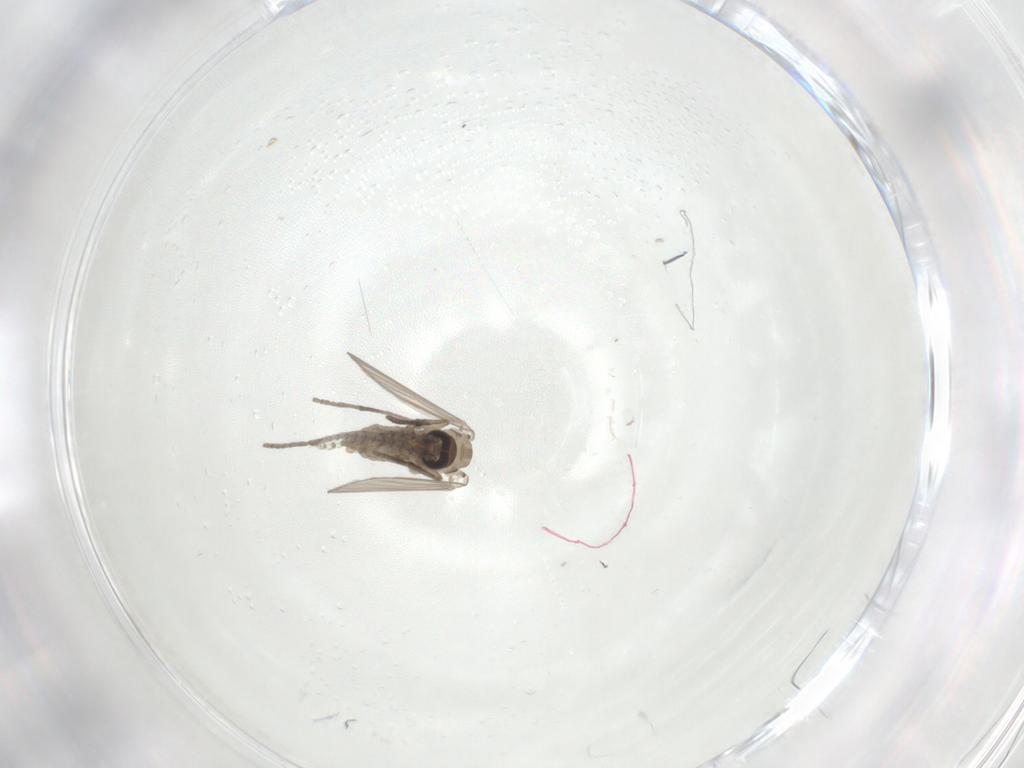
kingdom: Animalia
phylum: Arthropoda
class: Insecta
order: Diptera
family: Psychodidae
